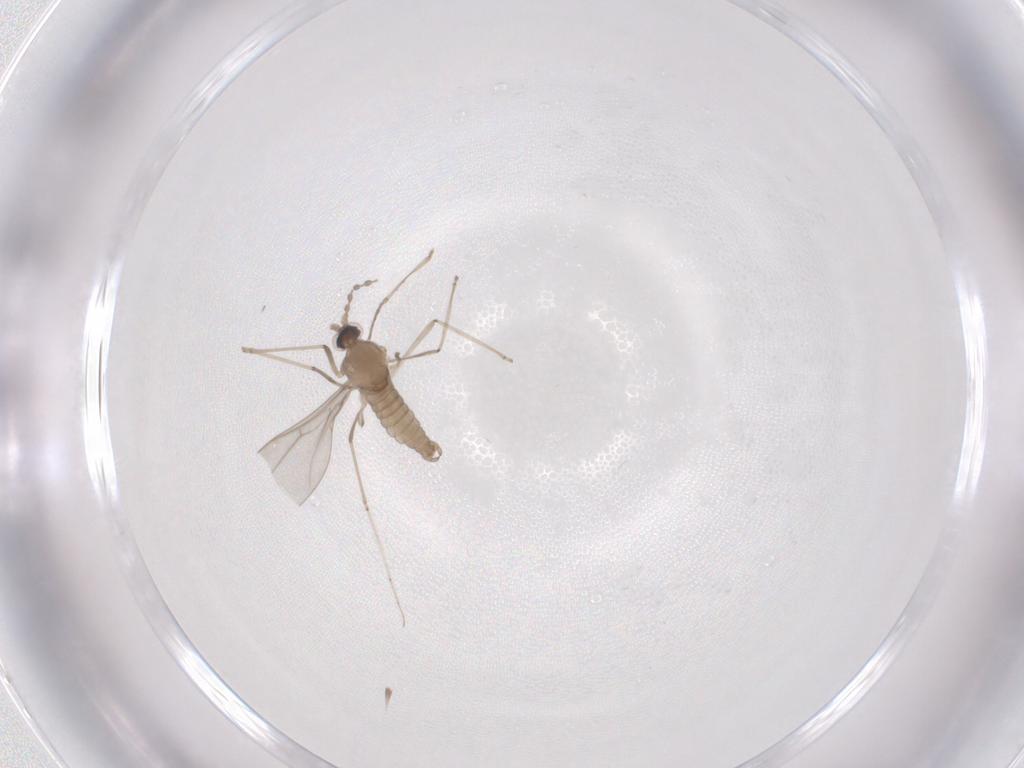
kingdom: Animalia
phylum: Arthropoda
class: Insecta
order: Diptera
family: Cecidomyiidae
